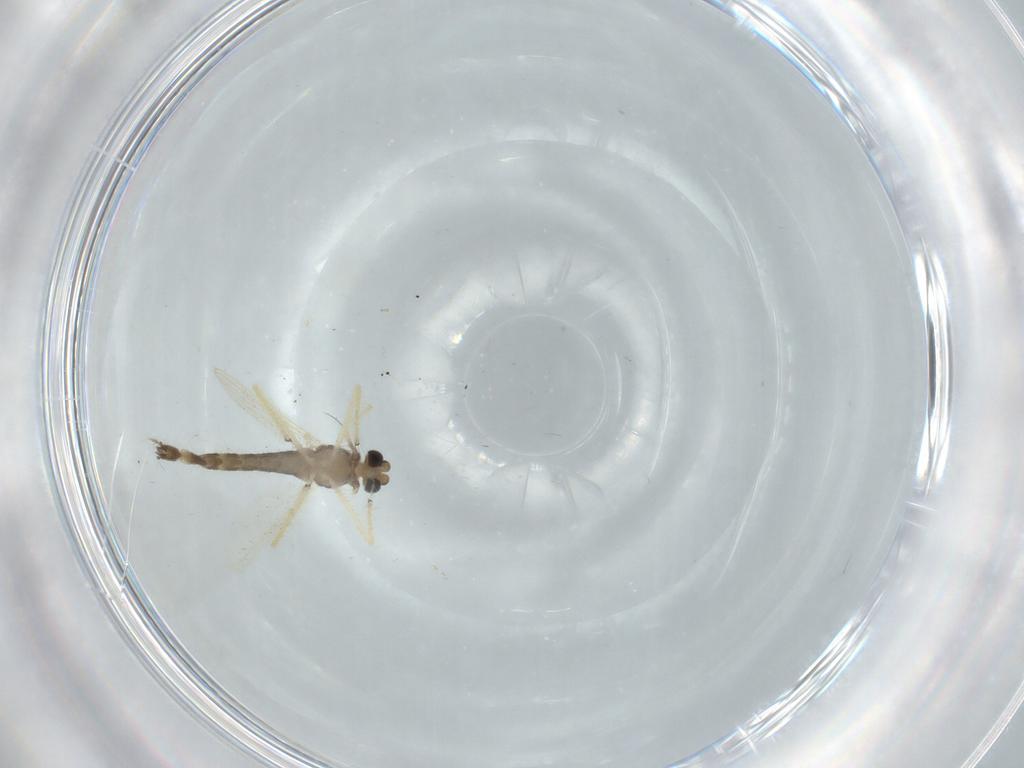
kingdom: Animalia
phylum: Arthropoda
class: Insecta
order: Diptera
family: Chironomidae
